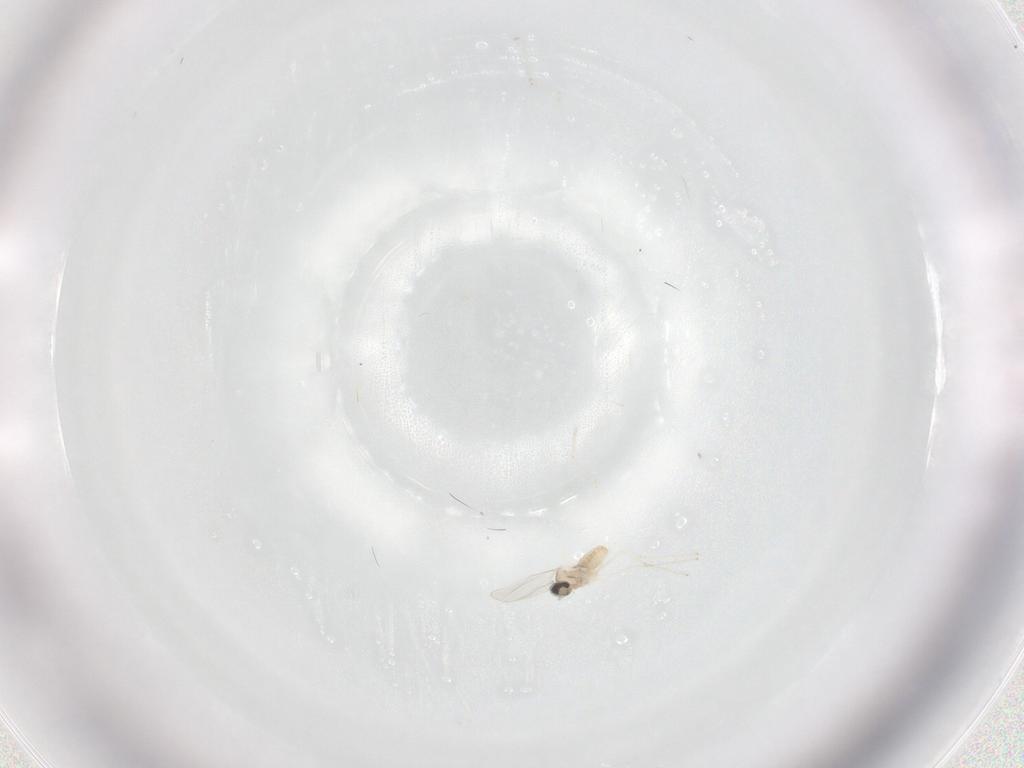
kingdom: Animalia
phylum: Arthropoda
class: Insecta
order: Diptera
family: Cecidomyiidae
